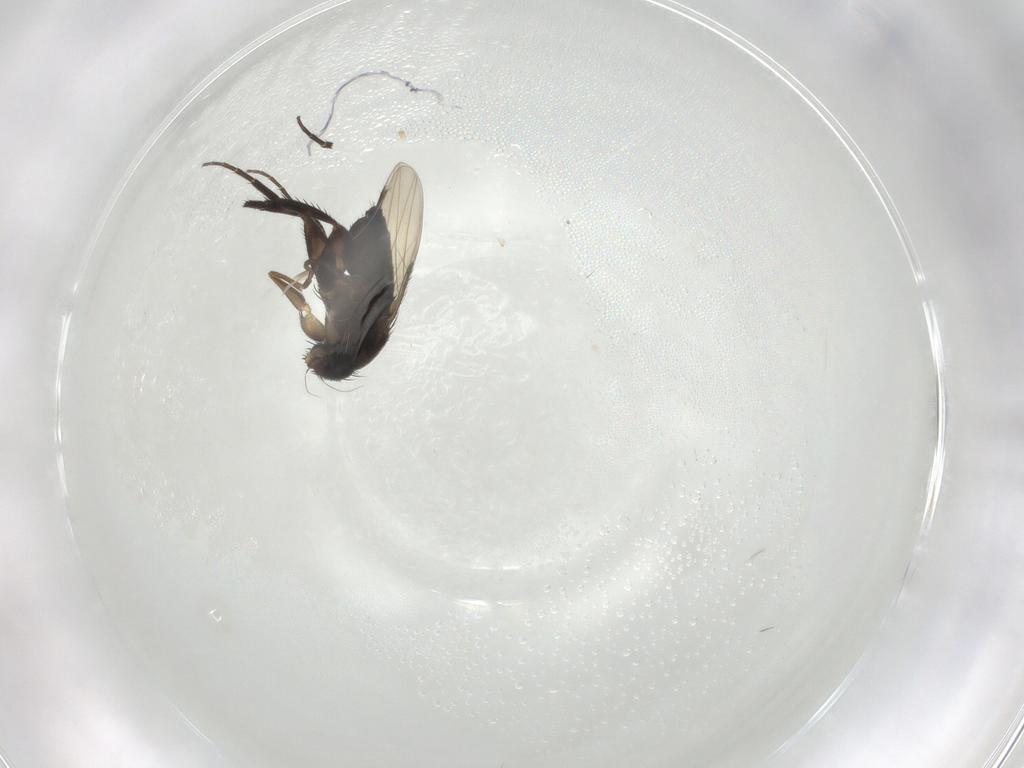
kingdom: Animalia
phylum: Arthropoda
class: Insecta
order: Diptera
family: Phoridae
